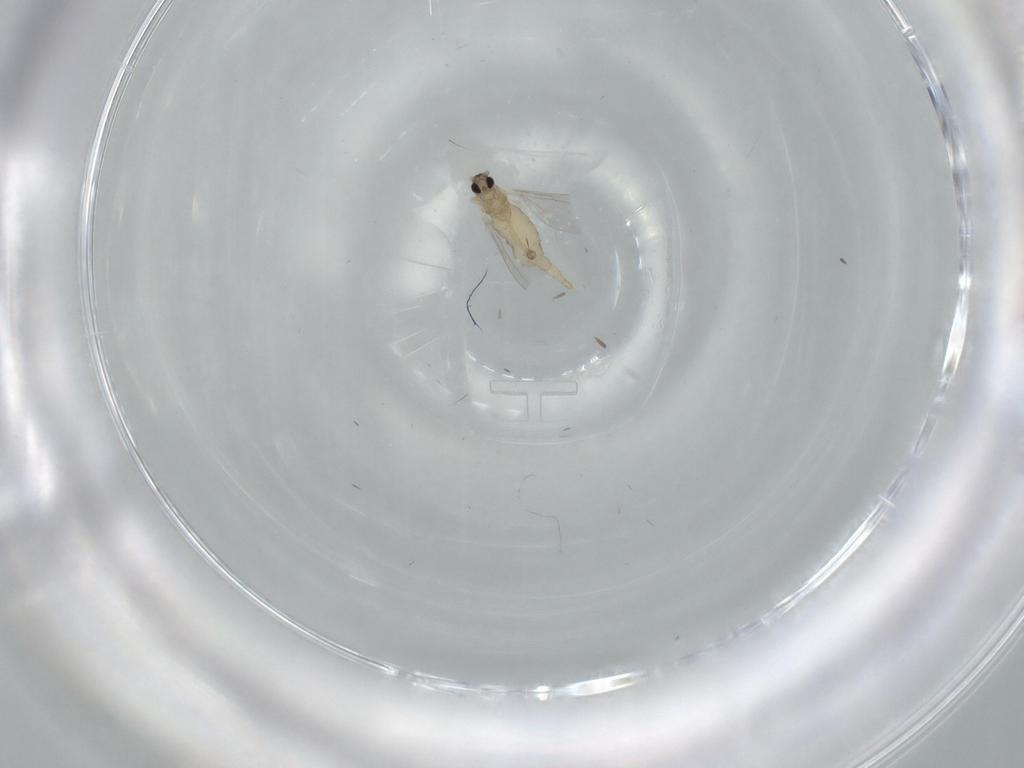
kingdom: Animalia
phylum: Arthropoda
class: Insecta
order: Diptera
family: Cecidomyiidae
